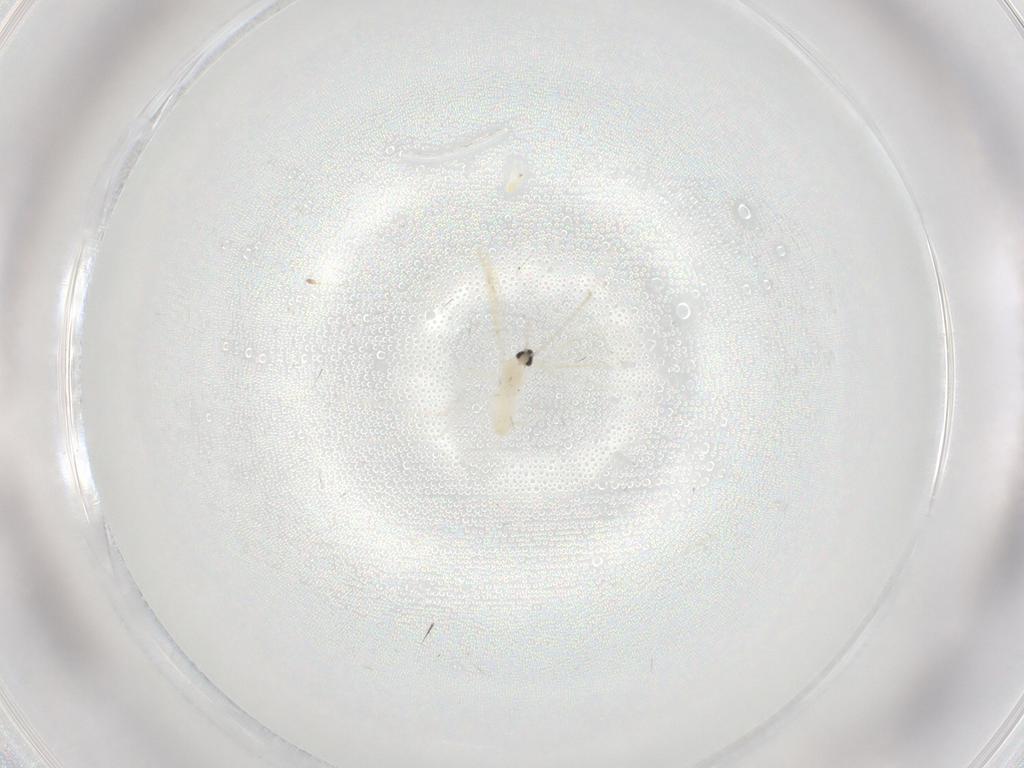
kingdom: Animalia
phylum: Arthropoda
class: Insecta
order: Diptera
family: Cecidomyiidae
